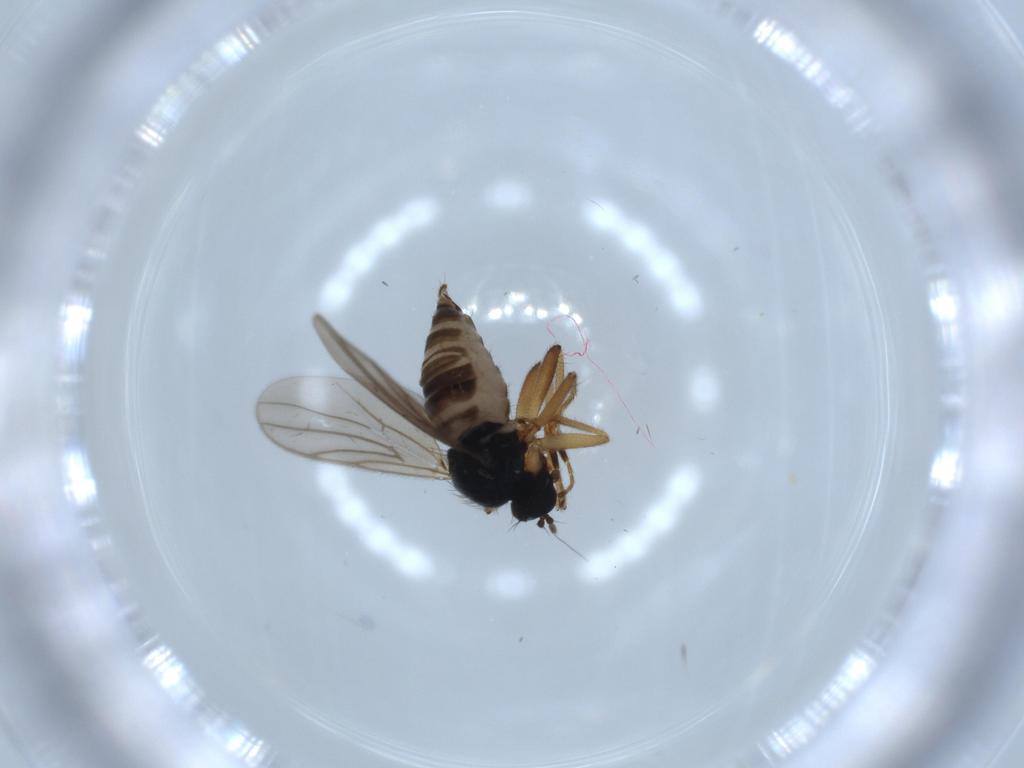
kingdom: Animalia
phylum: Arthropoda
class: Insecta
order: Diptera
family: Hybotidae
